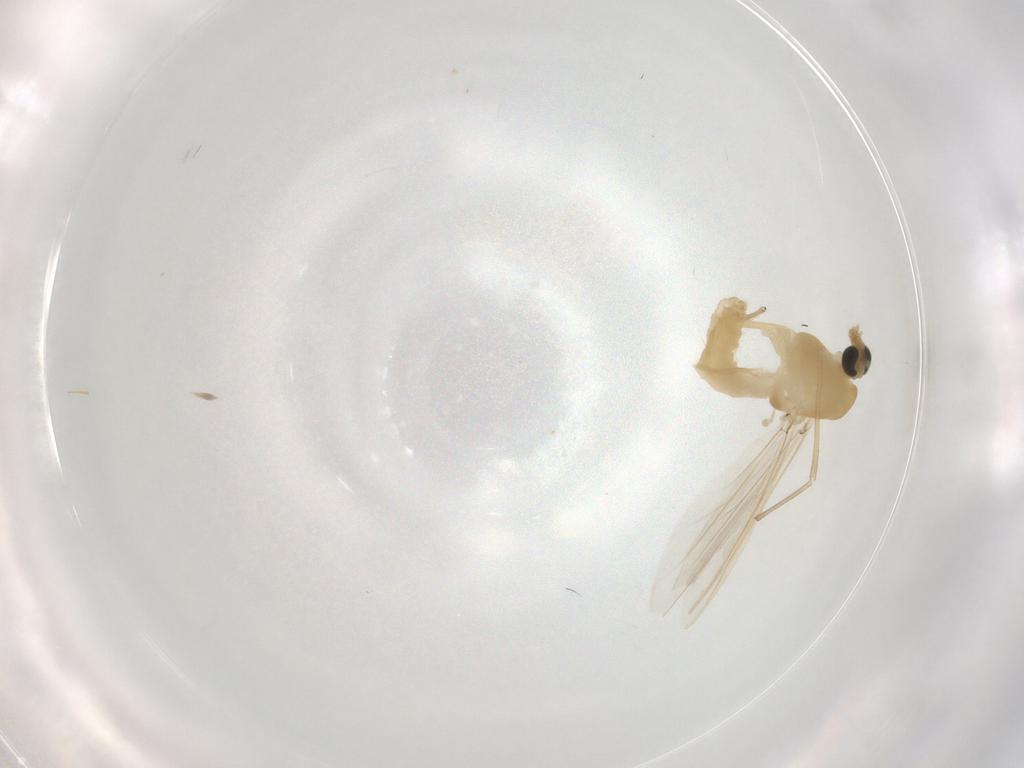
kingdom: Animalia
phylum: Arthropoda
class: Insecta
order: Diptera
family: Chironomidae
